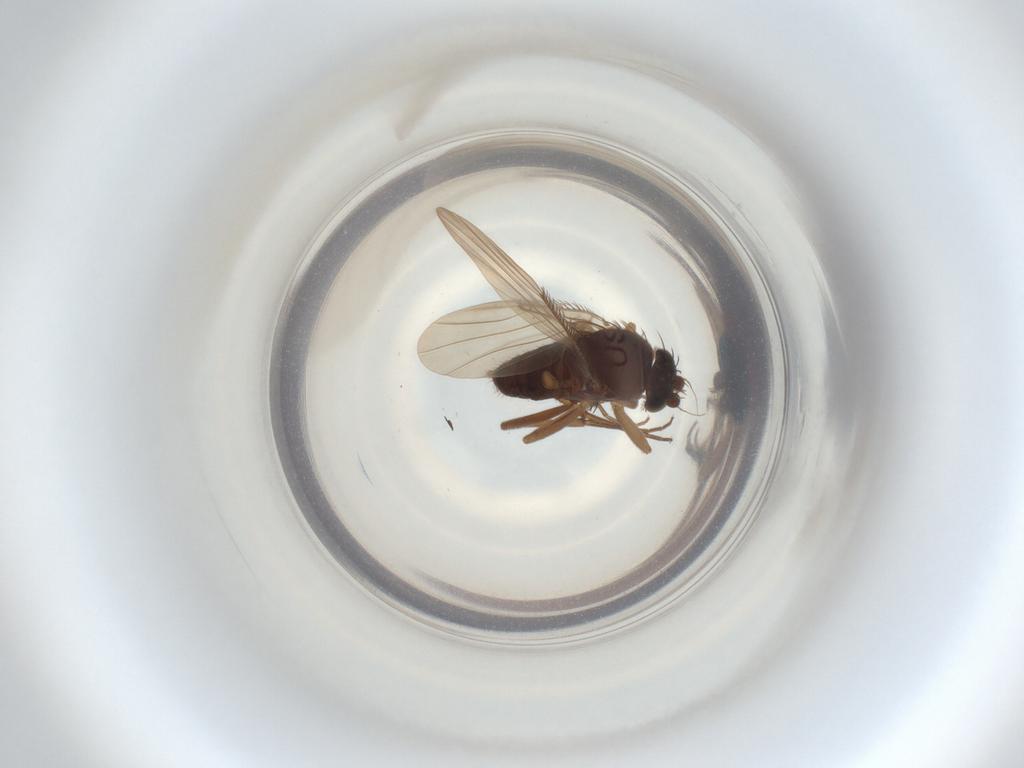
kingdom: Animalia
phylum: Arthropoda
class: Insecta
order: Diptera
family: Phoridae
